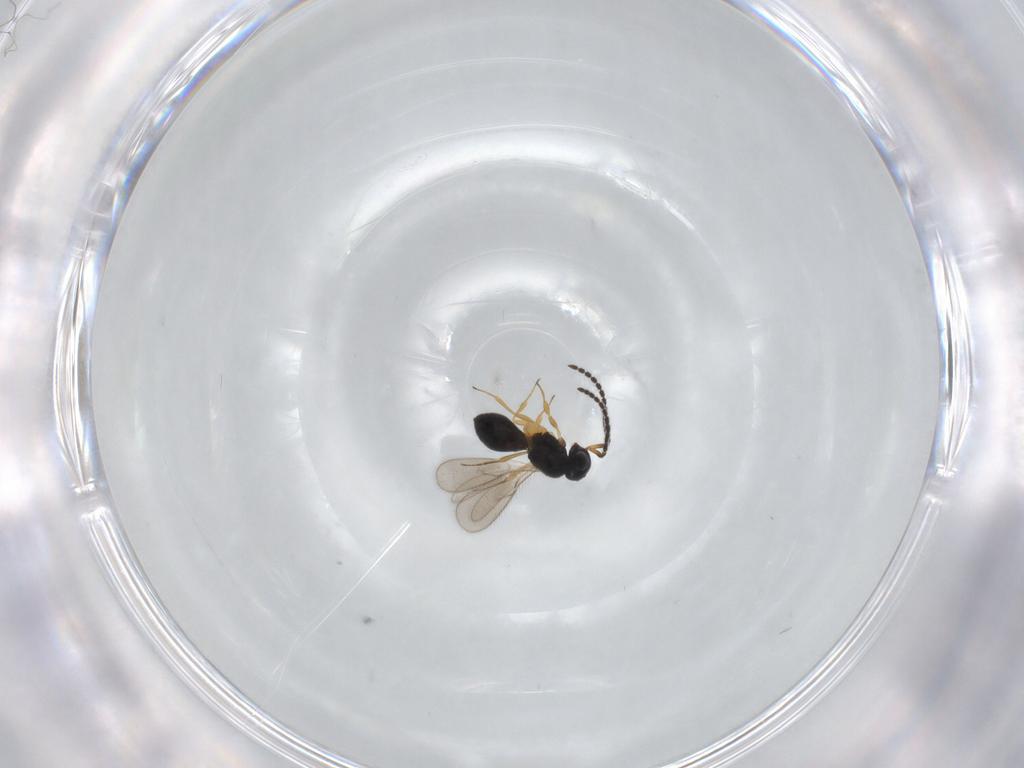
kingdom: Animalia
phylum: Arthropoda
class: Insecta
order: Hymenoptera
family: Scelionidae
